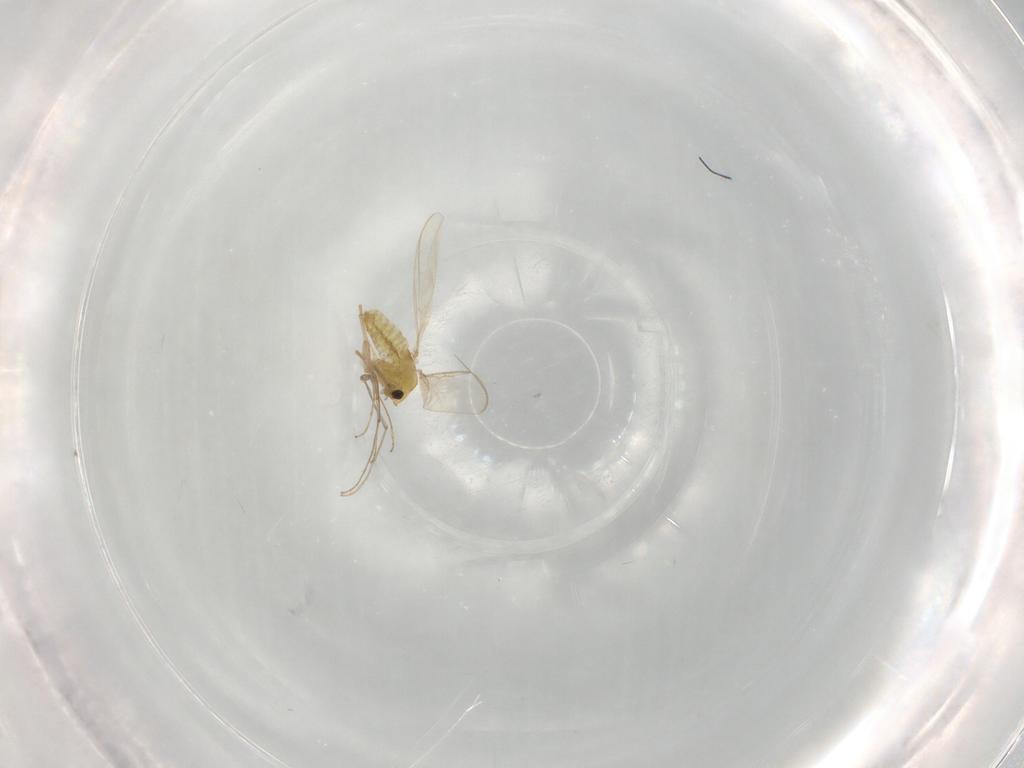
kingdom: Animalia
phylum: Arthropoda
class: Insecta
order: Diptera
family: Chironomidae
